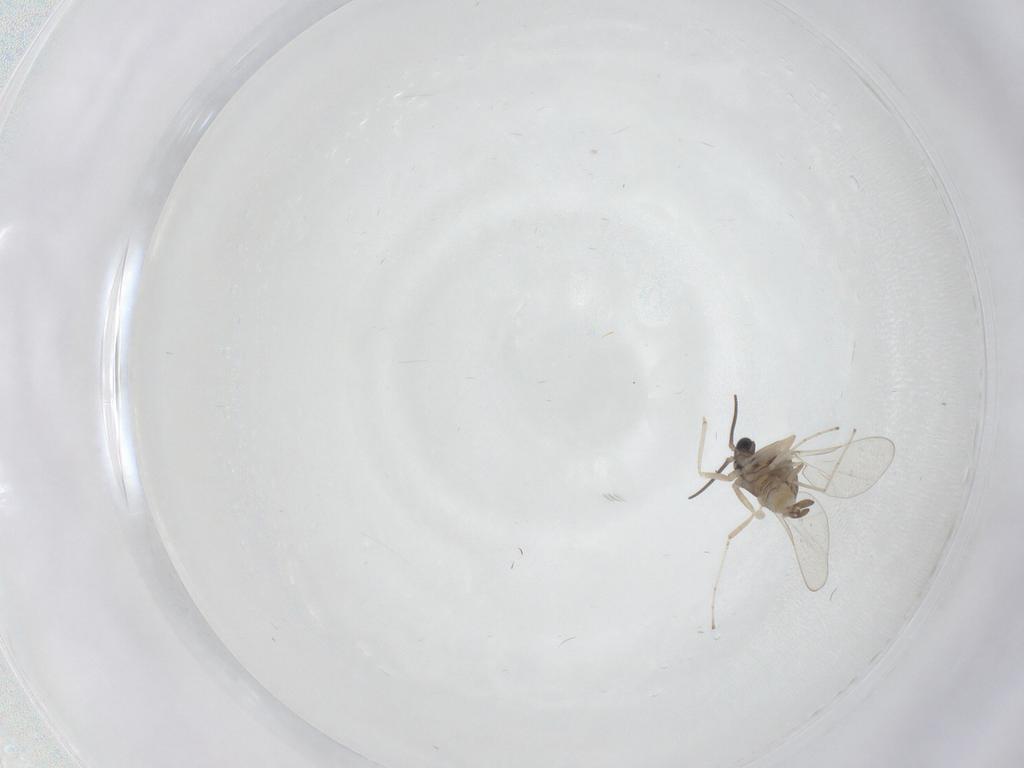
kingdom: Animalia
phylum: Arthropoda
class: Insecta
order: Diptera
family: Cecidomyiidae
